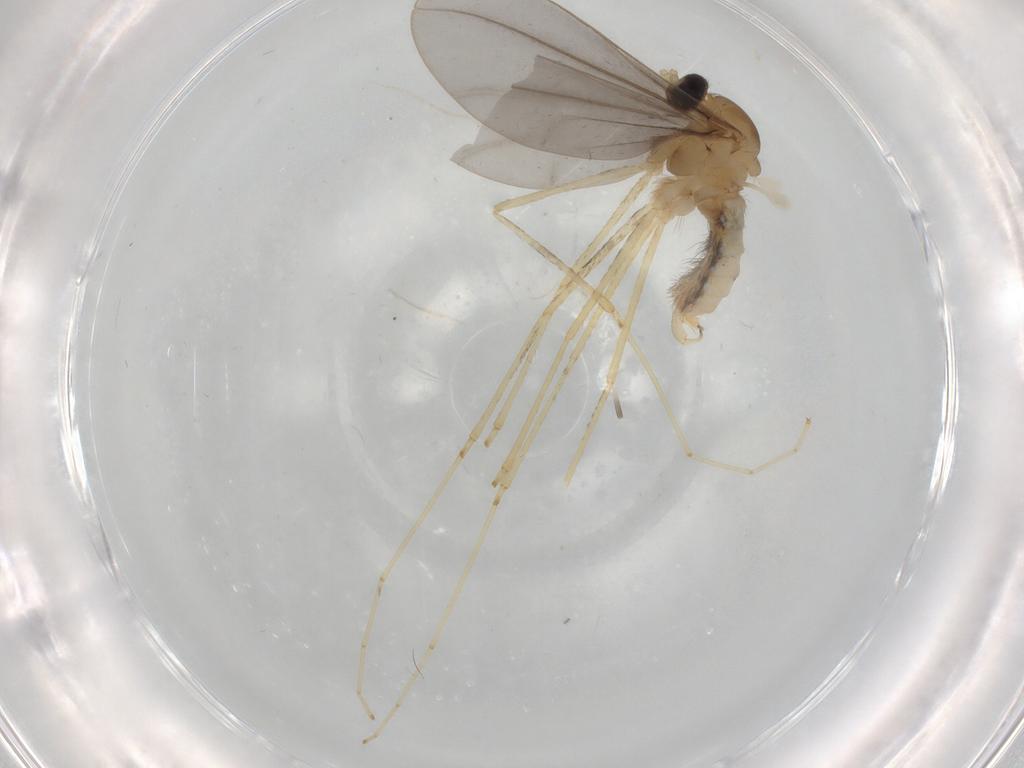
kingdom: Animalia
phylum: Arthropoda
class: Insecta
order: Diptera
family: Cecidomyiidae
